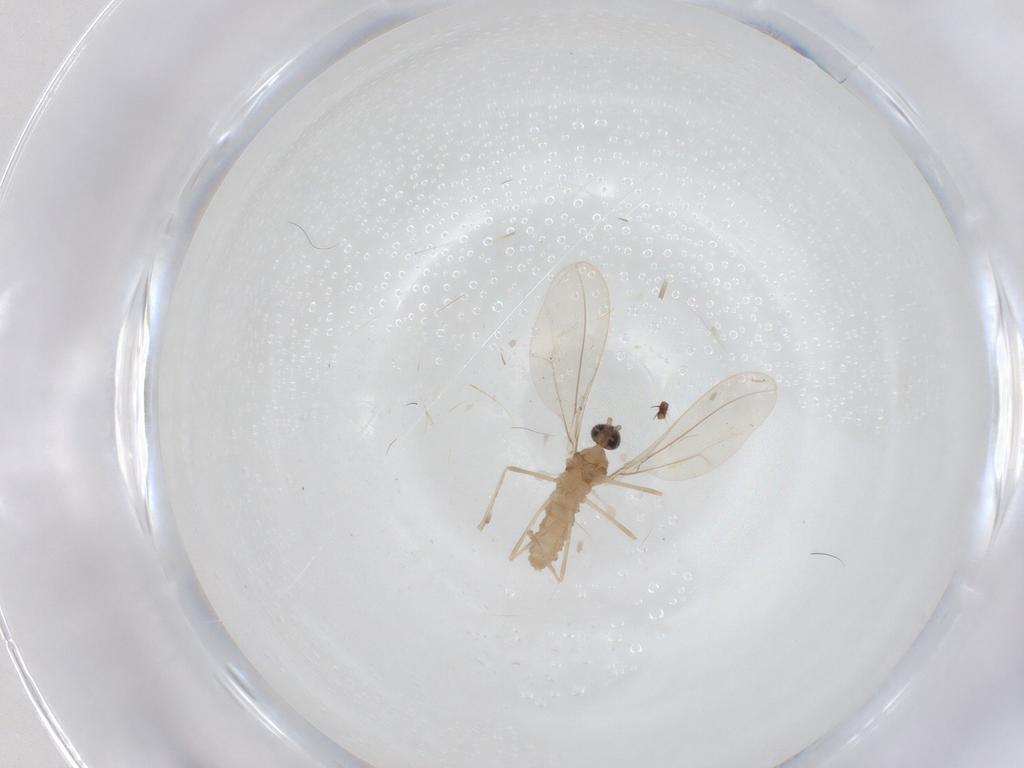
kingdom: Animalia
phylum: Arthropoda
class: Insecta
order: Diptera
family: Cecidomyiidae
